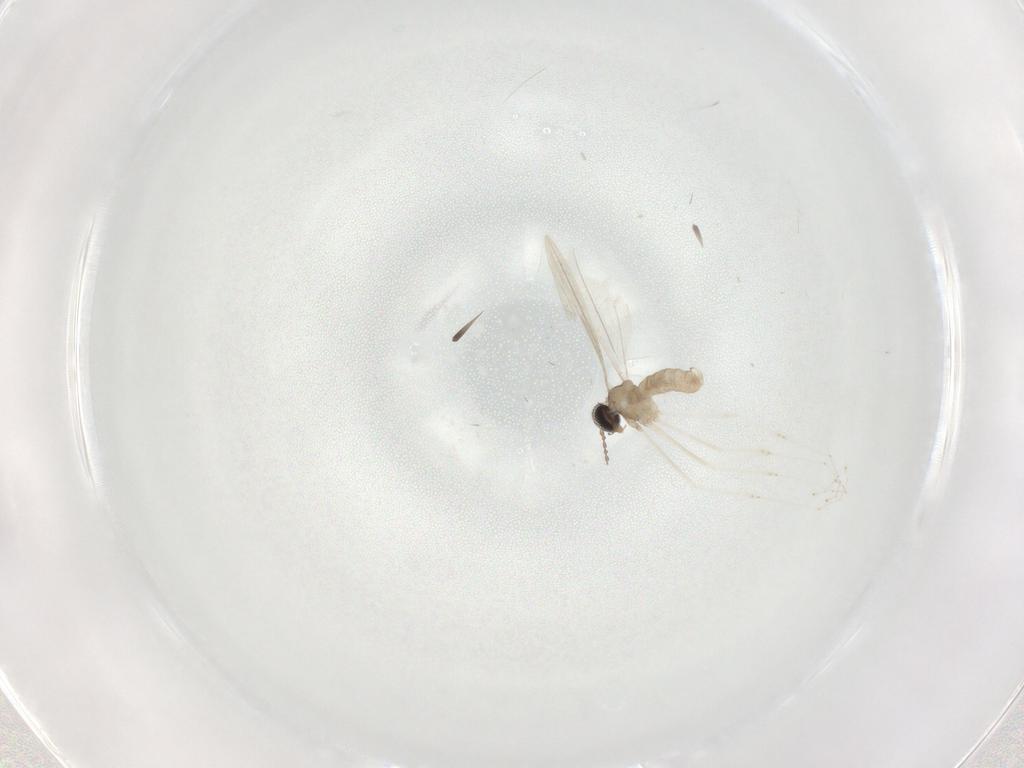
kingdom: Animalia
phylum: Arthropoda
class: Insecta
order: Diptera
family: Cecidomyiidae
